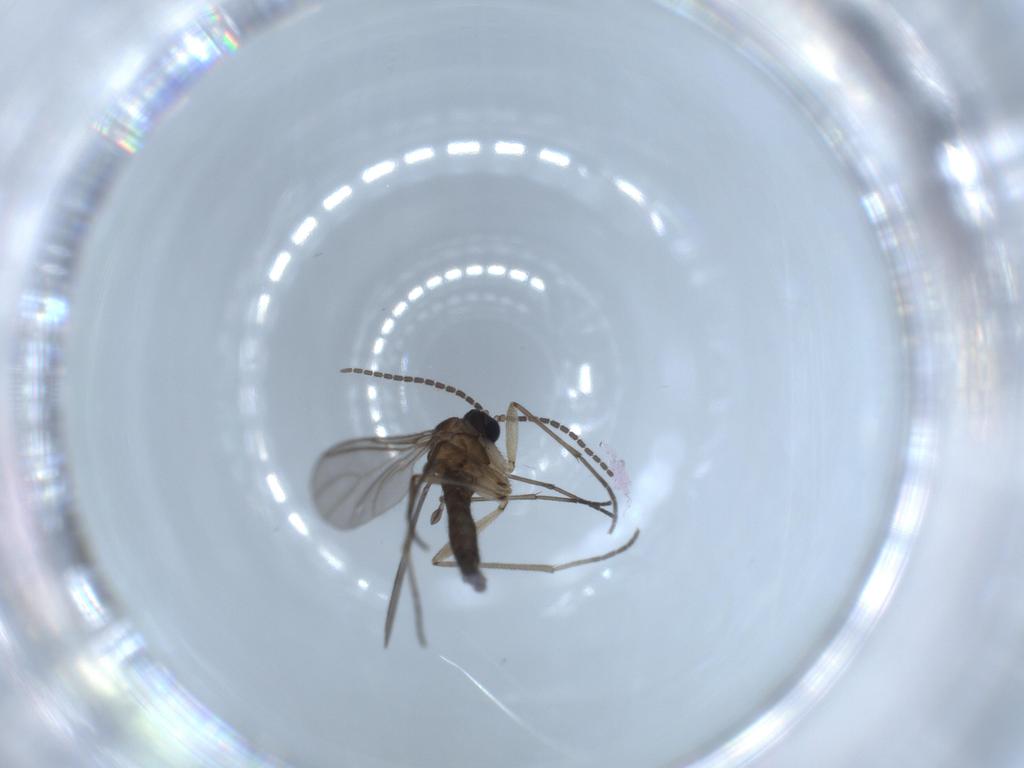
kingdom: Animalia
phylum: Arthropoda
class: Insecta
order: Diptera
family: Sciaridae
